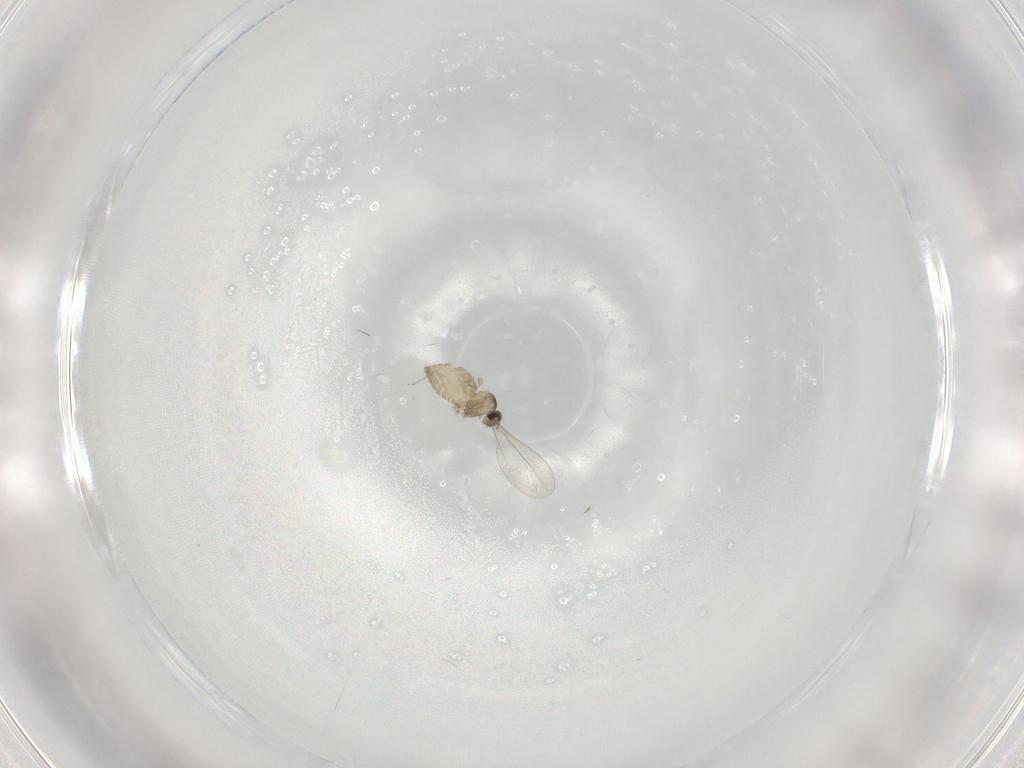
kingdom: Animalia
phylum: Arthropoda
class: Insecta
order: Diptera
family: Cecidomyiidae
